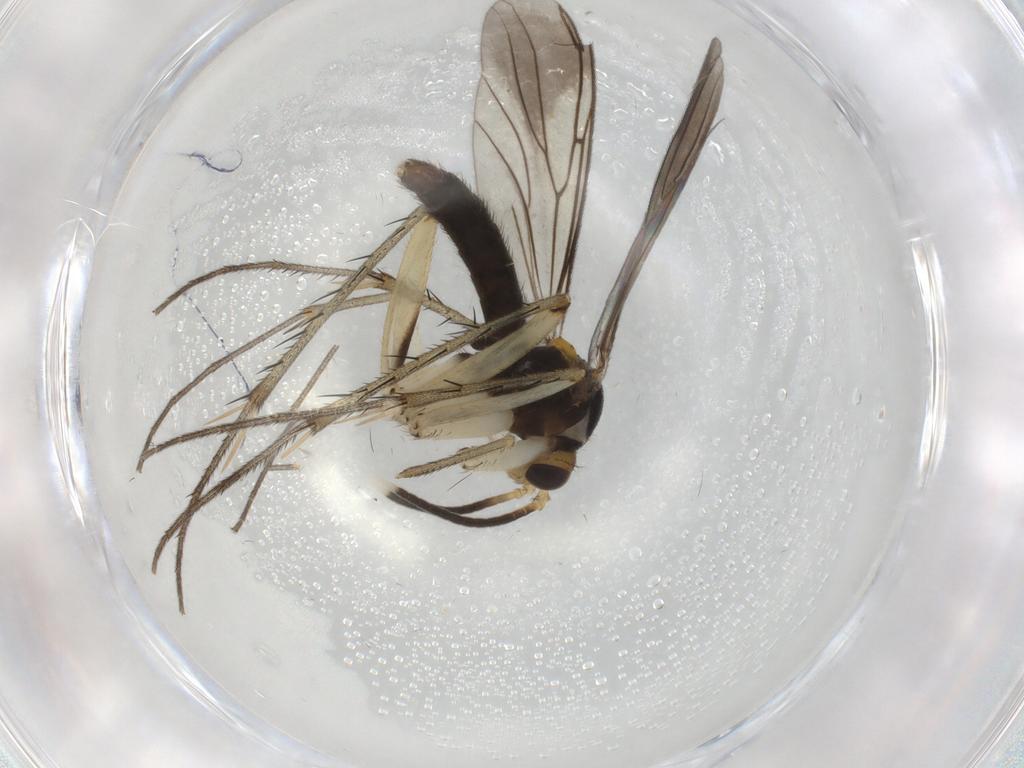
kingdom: Animalia
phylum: Arthropoda
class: Insecta
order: Diptera
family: Mycetophilidae
